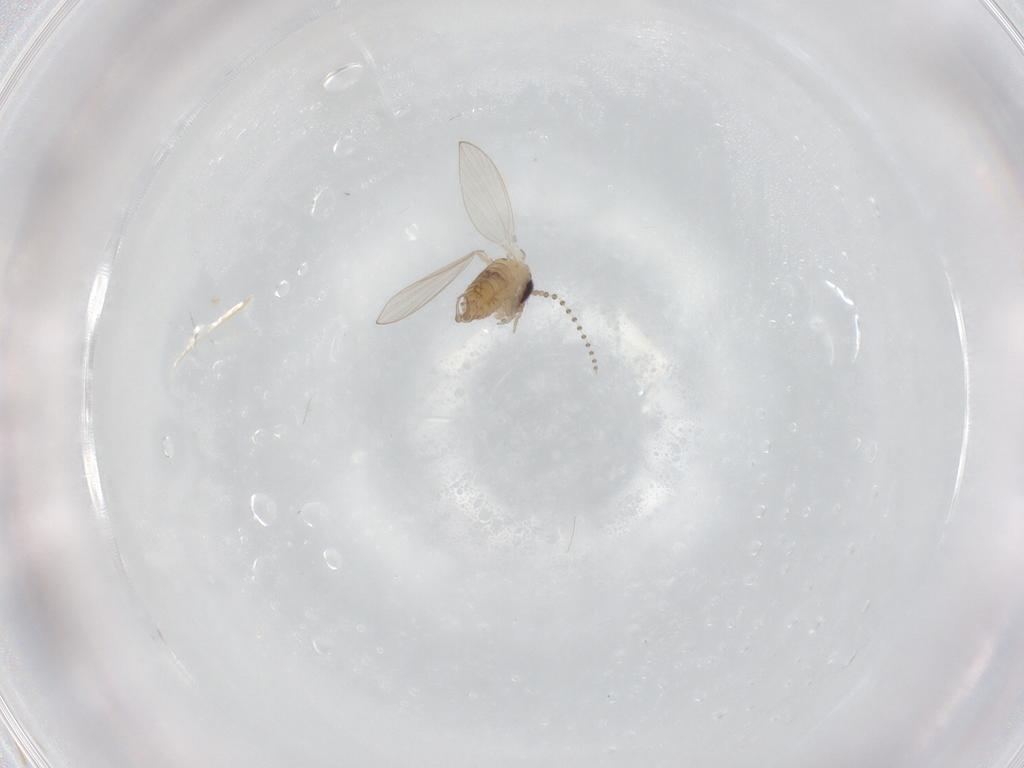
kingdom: Animalia
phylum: Arthropoda
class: Insecta
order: Diptera
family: Psychodidae
